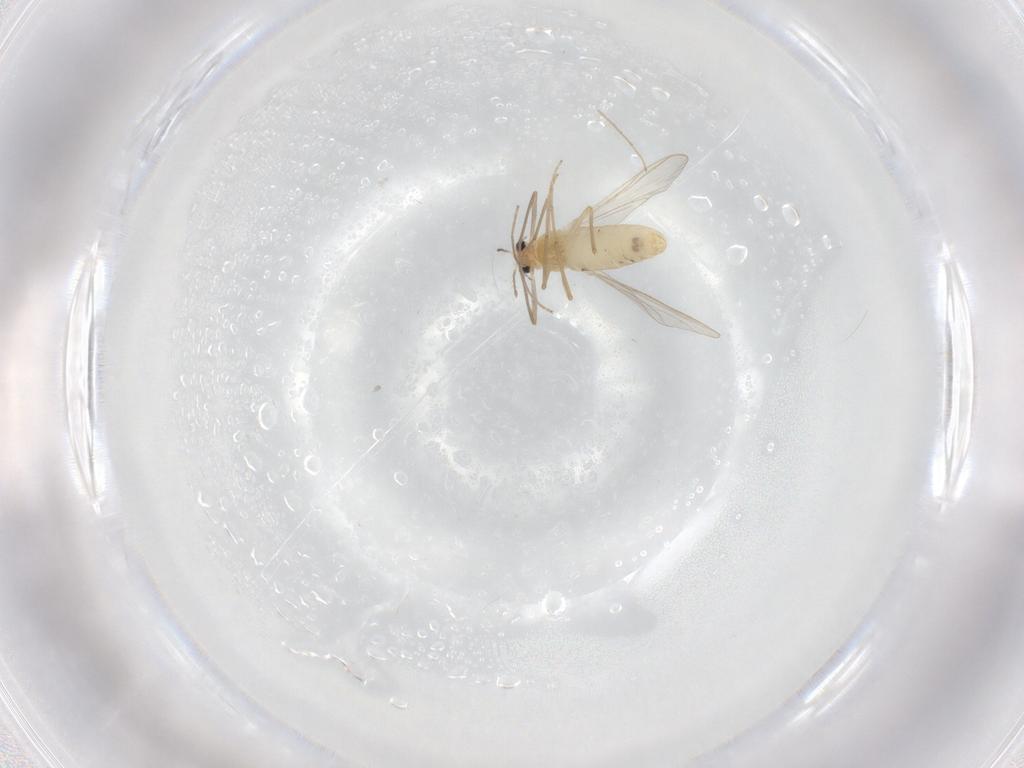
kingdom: Animalia
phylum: Arthropoda
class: Insecta
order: Diptera
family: Chironomidae
